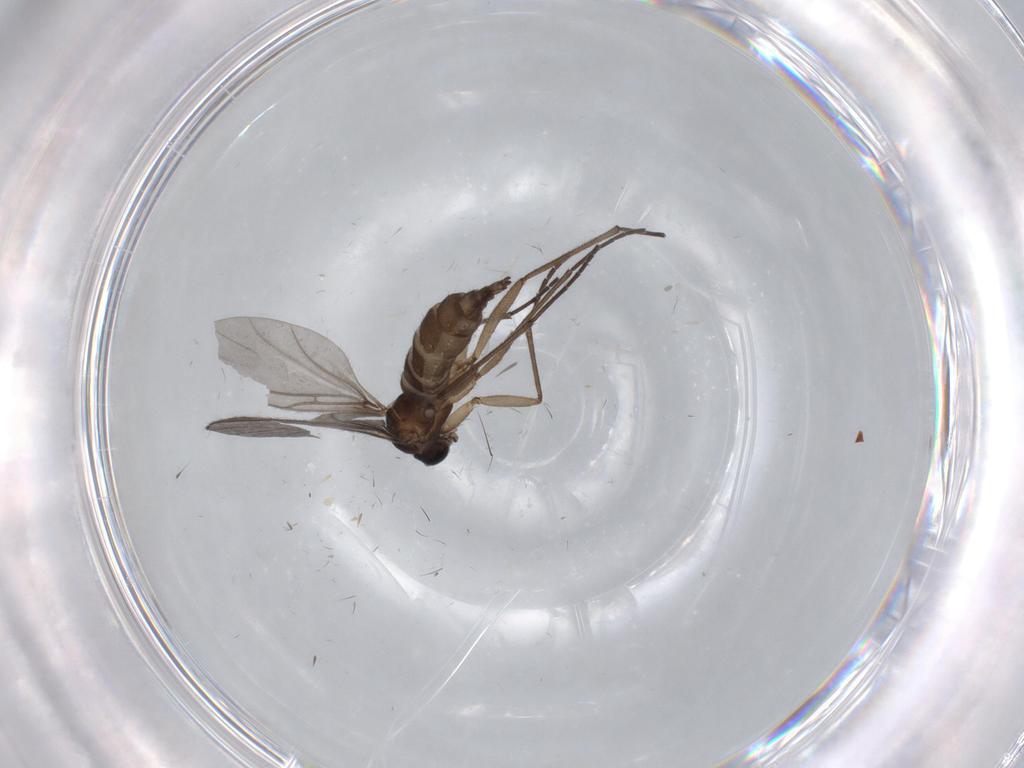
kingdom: Animalia
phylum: Arthropoda
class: Insecta
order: Diptera
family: Sciaridae
